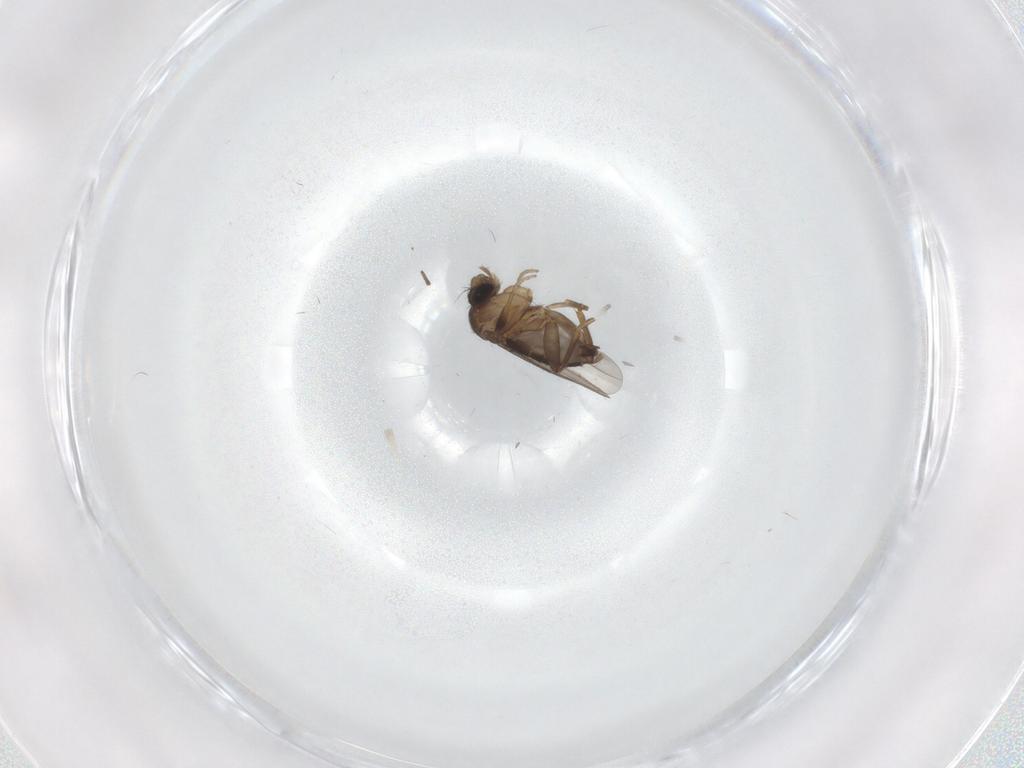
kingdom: Animalia
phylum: Arthropoda
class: Insecta
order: Diptera
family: Phoridae
